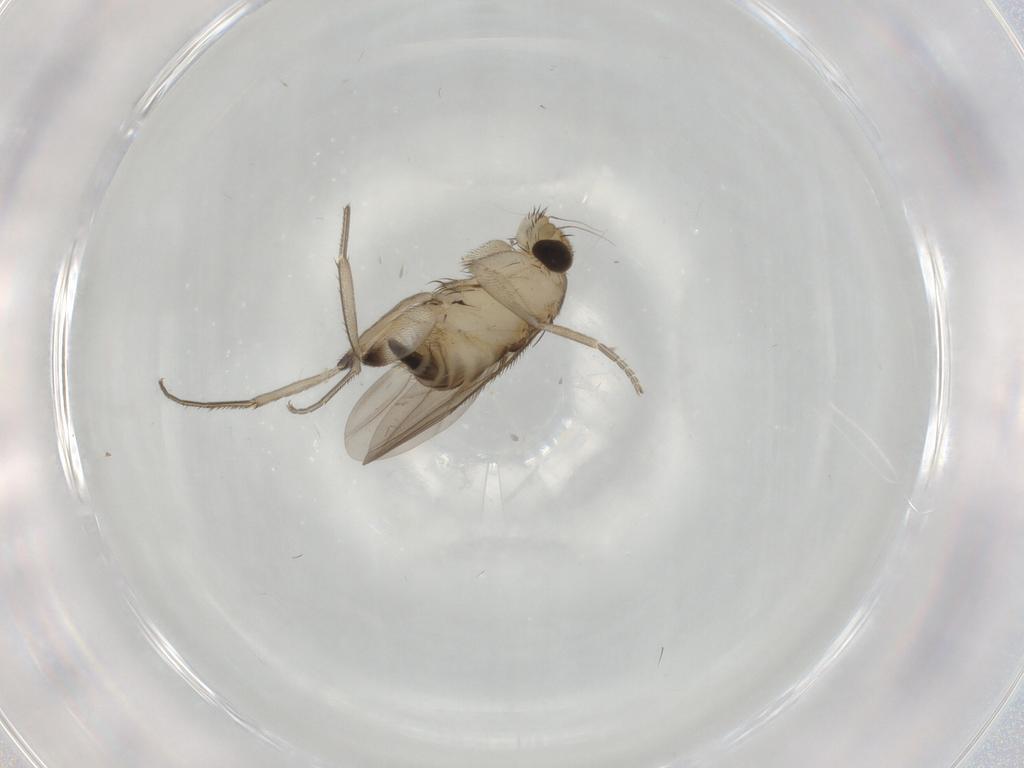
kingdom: Animalia
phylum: Arthropoda
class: Insecta
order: Diptera
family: Phoridae
